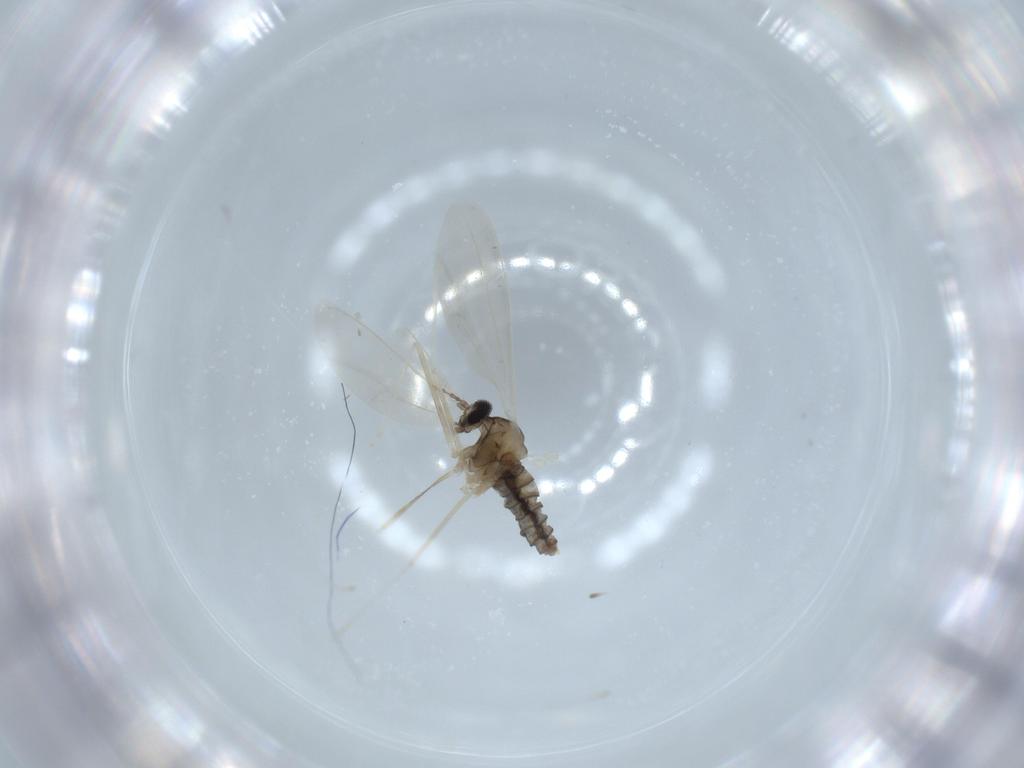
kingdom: Animalia
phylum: Arthropoda
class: Insecta
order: Diptera
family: Cecidomyiidae
